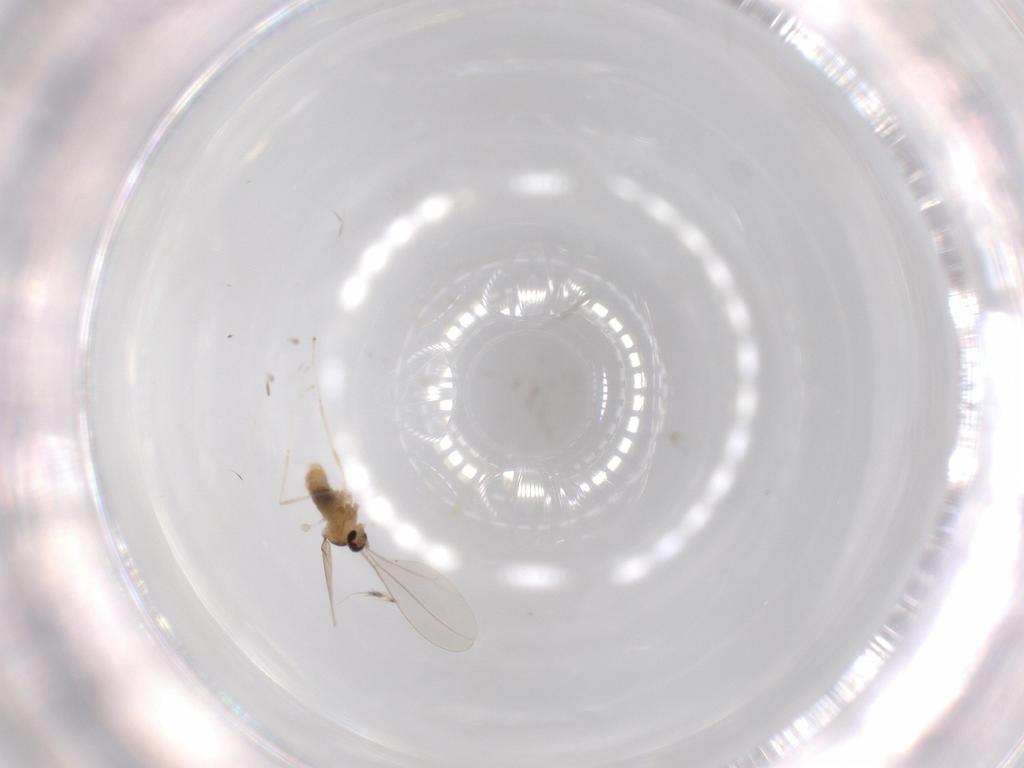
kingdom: Animalia
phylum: Arthropoda
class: Insecta
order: Diptera
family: Cecidomyiidae
